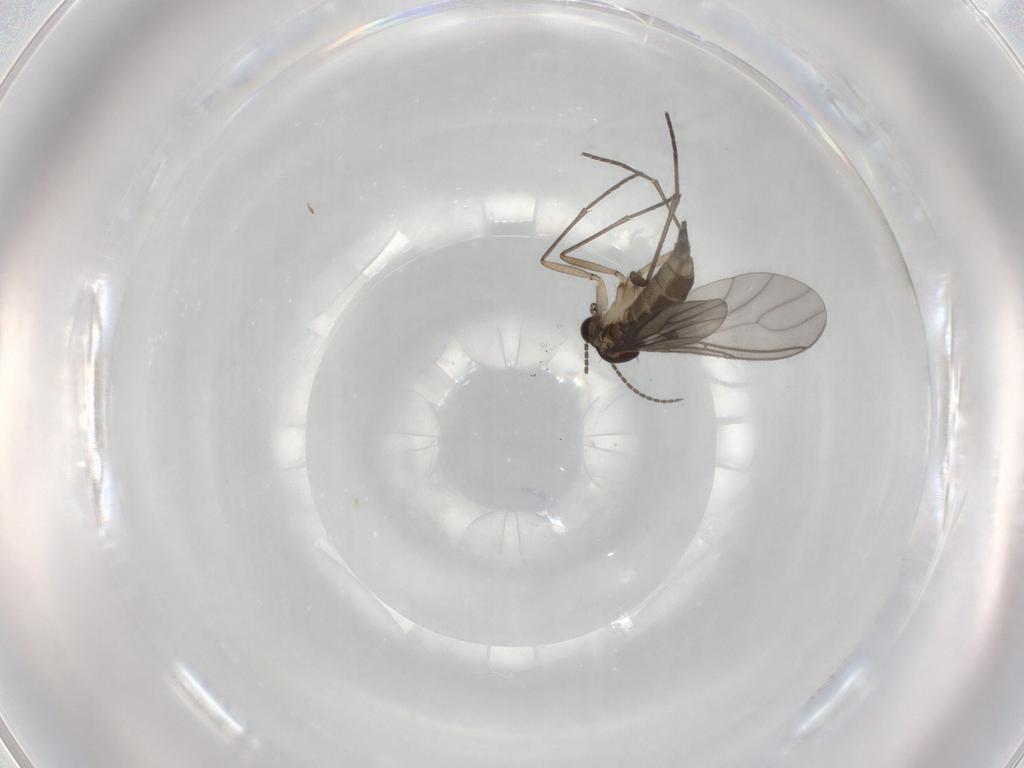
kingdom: Animalia
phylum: Arthropoda
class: Insecta
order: Diptera
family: Sciaridae
